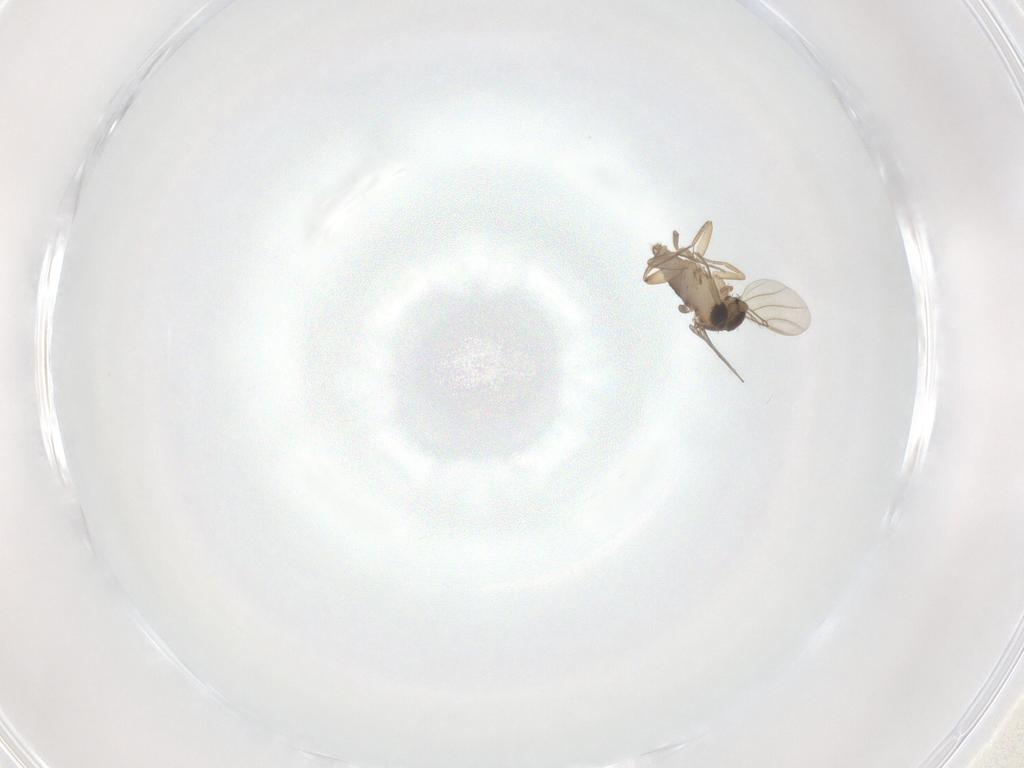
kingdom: Animalia
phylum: Arthropoda
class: Insecta
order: Diptera
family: Phoridae
